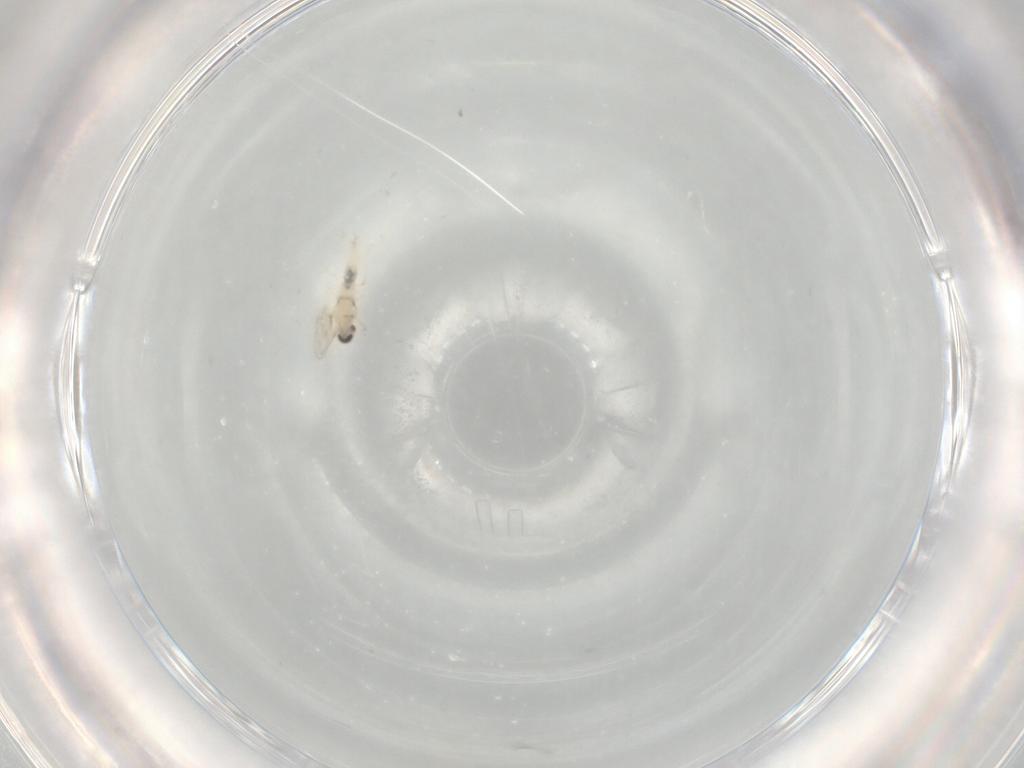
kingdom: Animalia
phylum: Arthropoda
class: Insecta
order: Diptera
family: Cecidomyiidae
